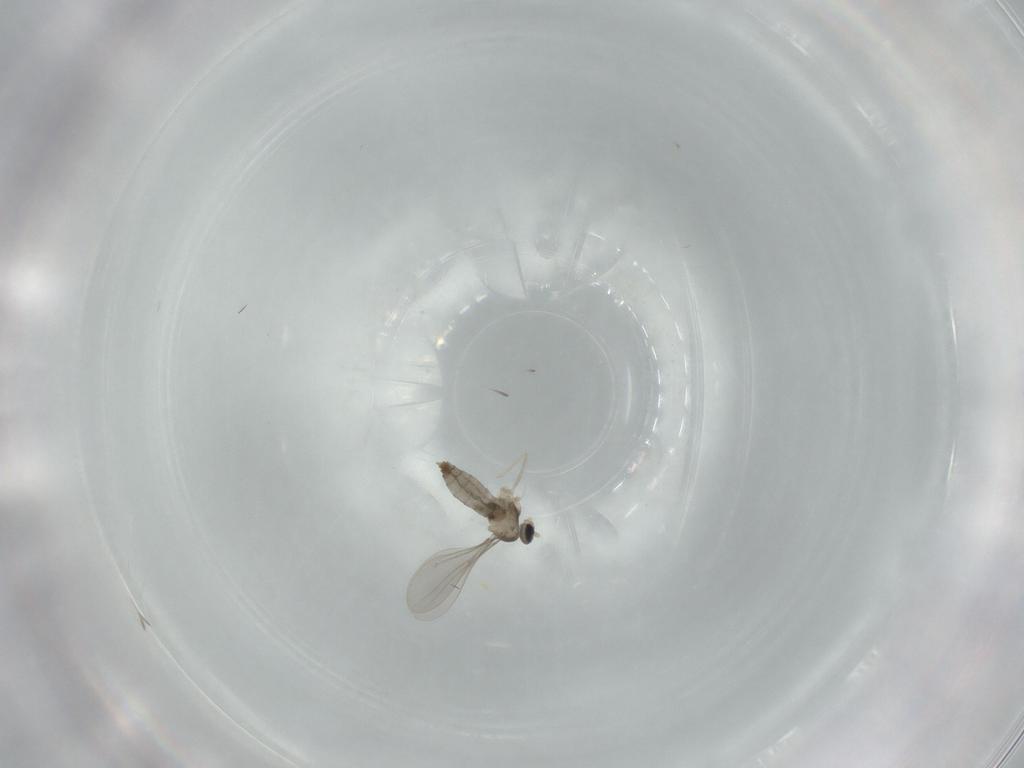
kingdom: Animalia
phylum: Arthropoda
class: Insecta
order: Diptera
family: Cecidomyiidae
